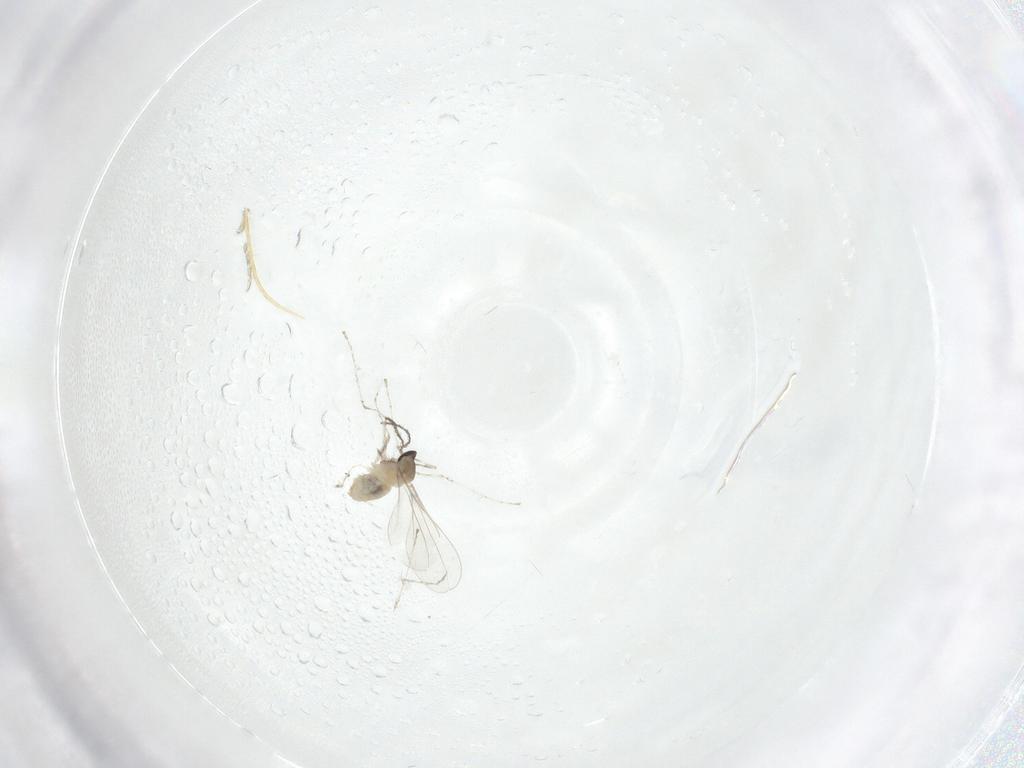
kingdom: Animalia
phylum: Arthropoda
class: Insecta
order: Diptera
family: Cecidomyiidae
